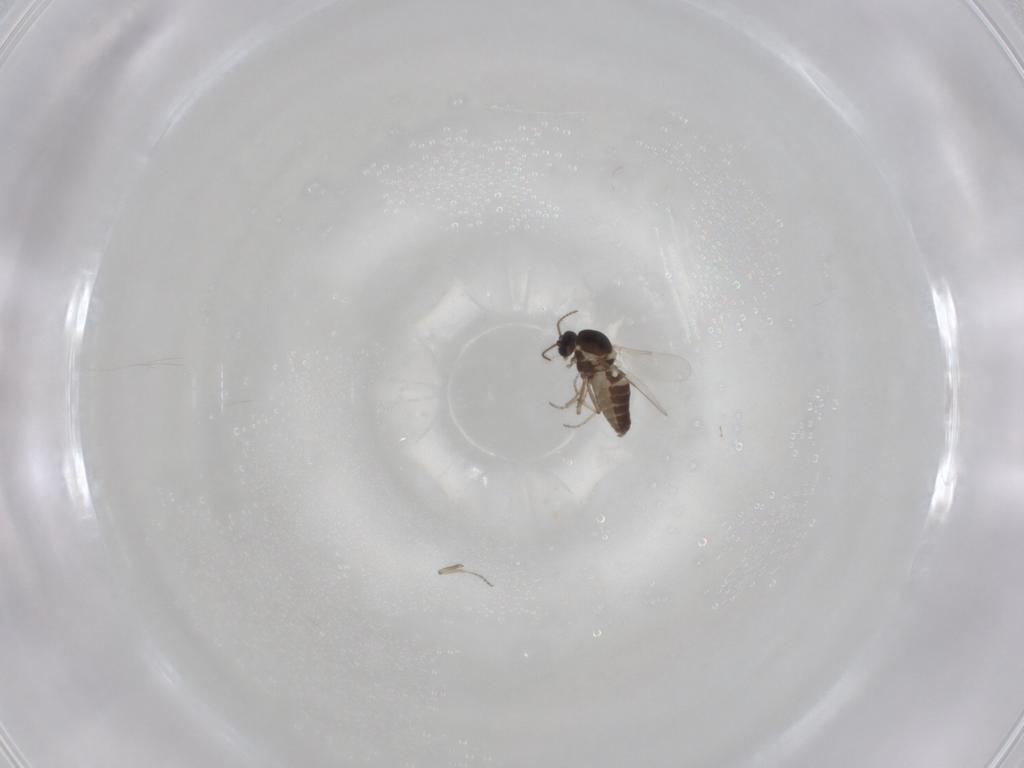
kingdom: Animalia
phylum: Arthropoda
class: Insecta
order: Diptera
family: Ceratopogonidae
